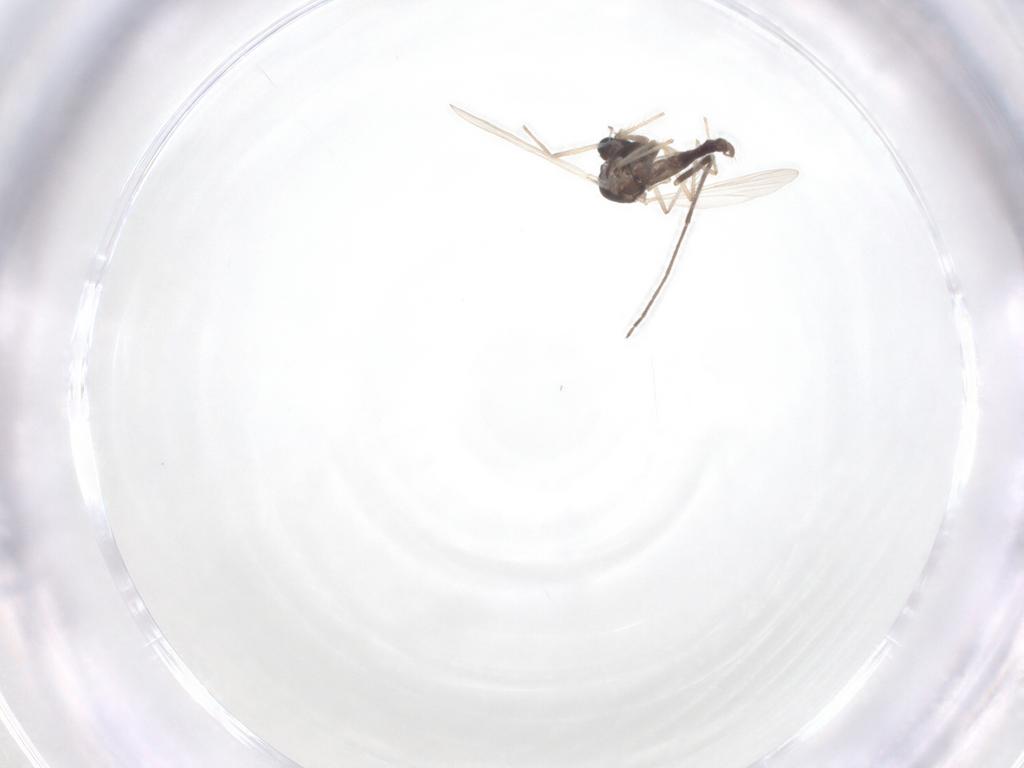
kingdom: Animalia
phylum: Arthropoda
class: Insecta
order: Diptera
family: Chironomidae
